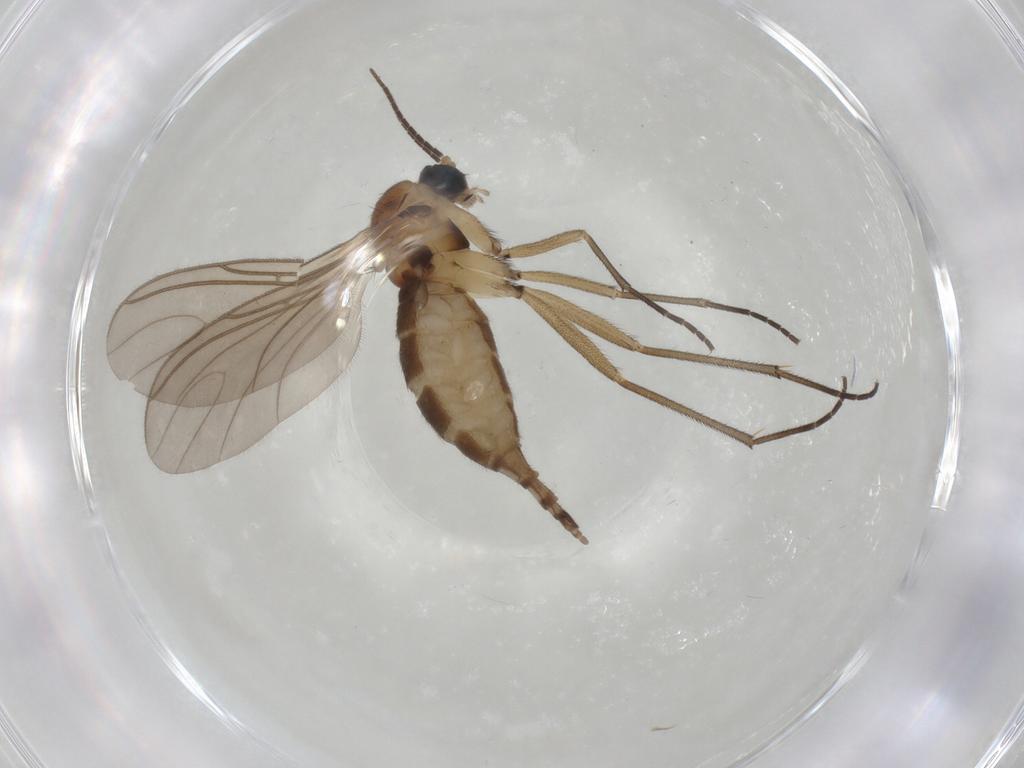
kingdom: Animalia
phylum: Arthropoda
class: Insecta
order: Diptera
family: Sciaridae
